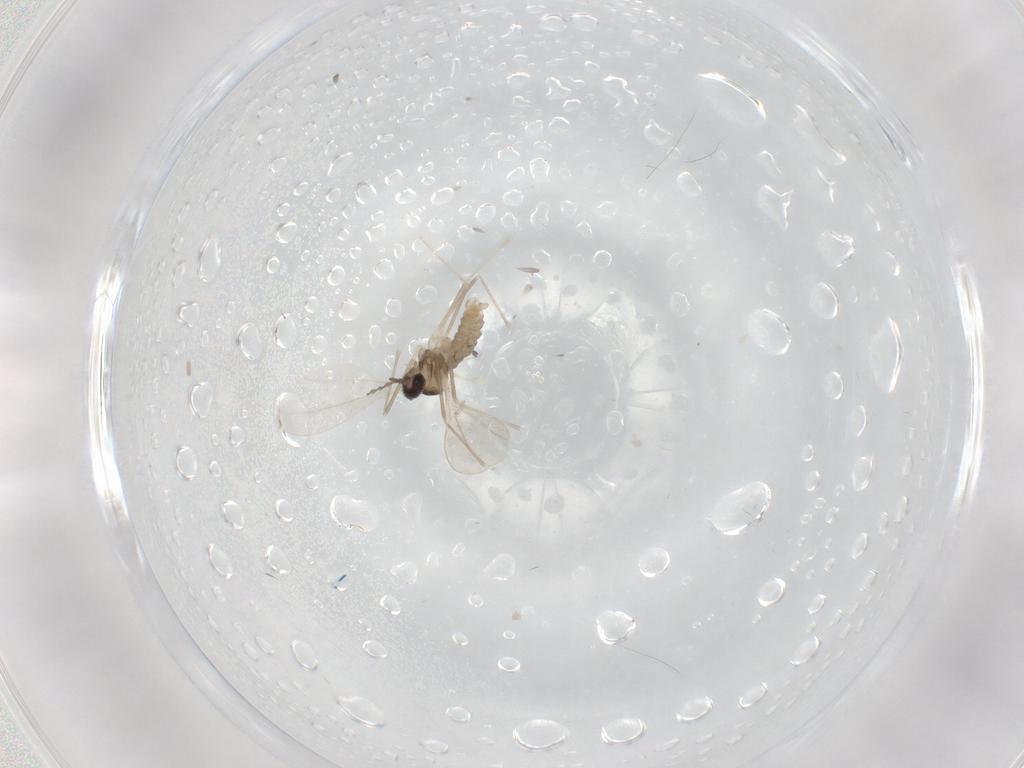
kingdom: Animalia
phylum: Arthropoda
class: Insecta
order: Diptera
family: Cecidomyiidae
